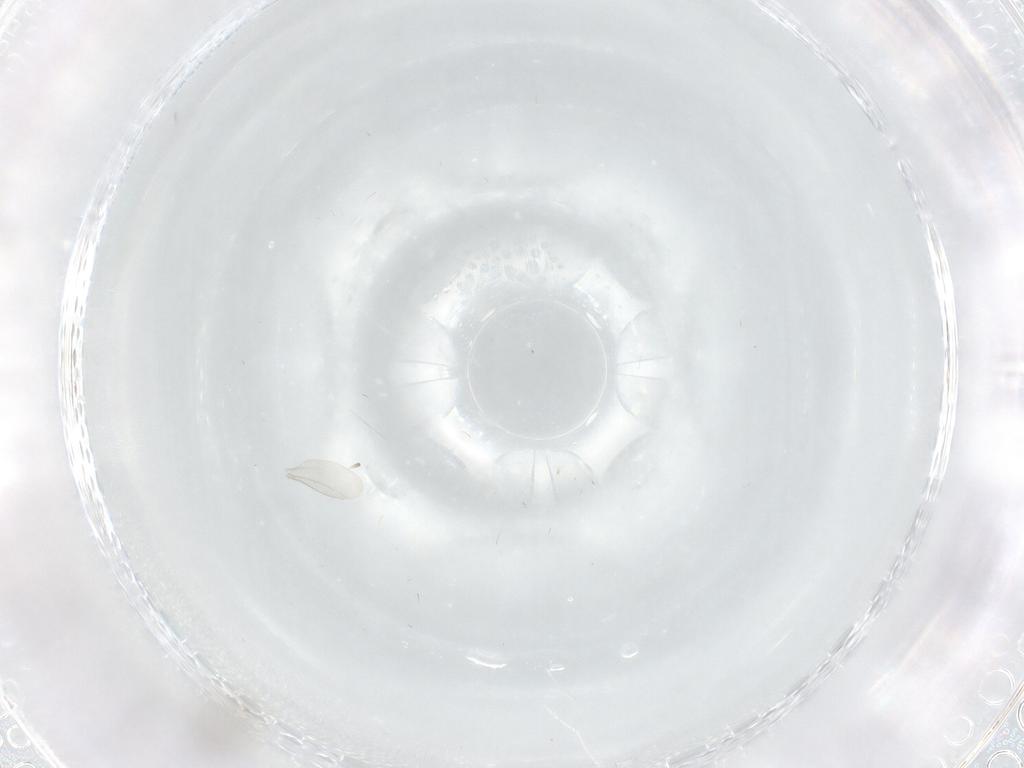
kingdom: Animalia
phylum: Arthropoda
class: Insecta
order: Diptera
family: Cecidomyiidae
